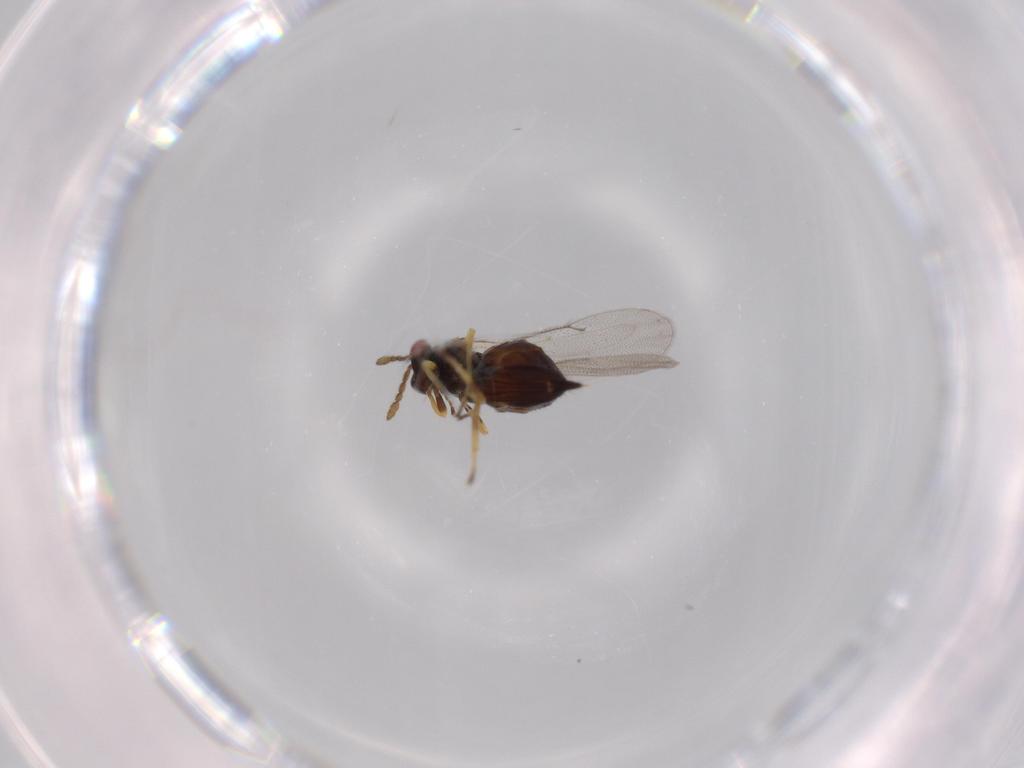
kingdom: Animalia
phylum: Arthropoda
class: Insecta
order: Hymenoptera
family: Eulophidae
